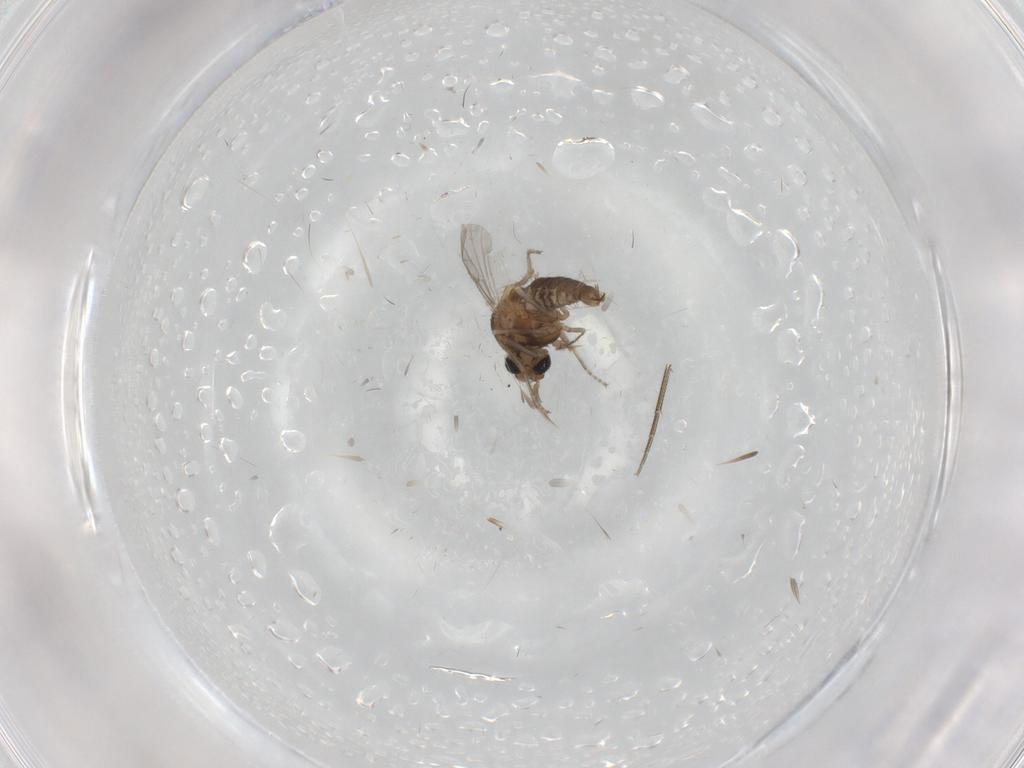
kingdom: Animalia
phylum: Arthropoda
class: Insecta
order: Diptera
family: Ceratopogonidae
